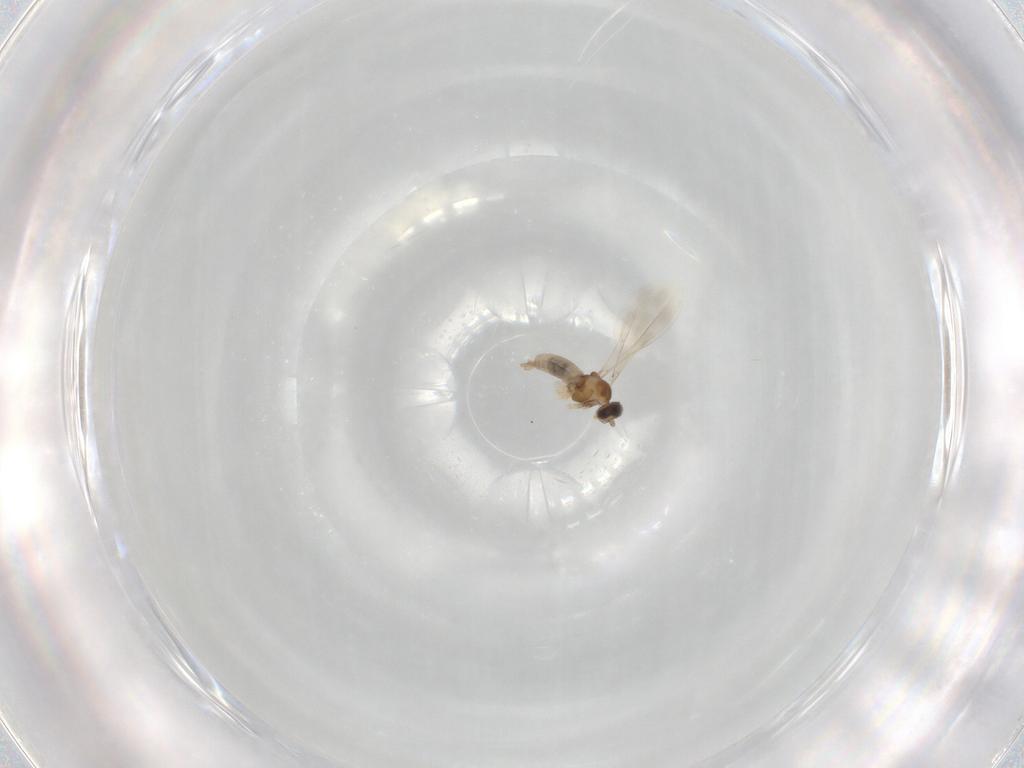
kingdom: Animalia
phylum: Arthropoda
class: Insecta
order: Diptera
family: Cecidomyiidae
